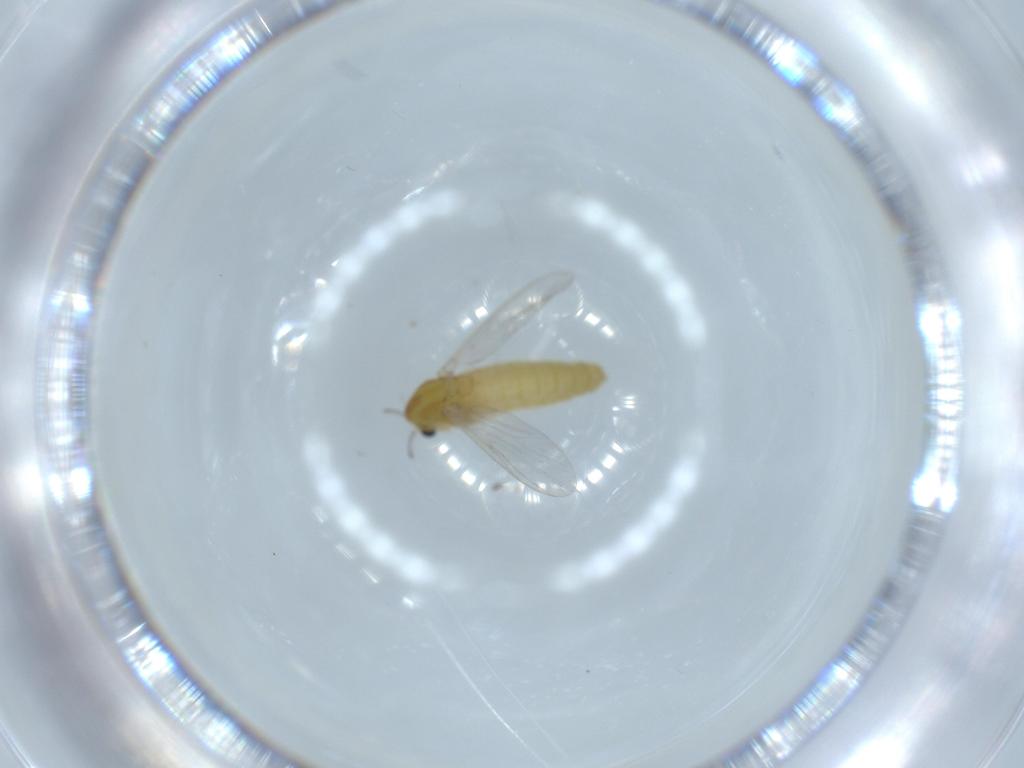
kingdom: Animalia
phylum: Arthropoda
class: Insecta
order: Diptera
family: Chironomidae
